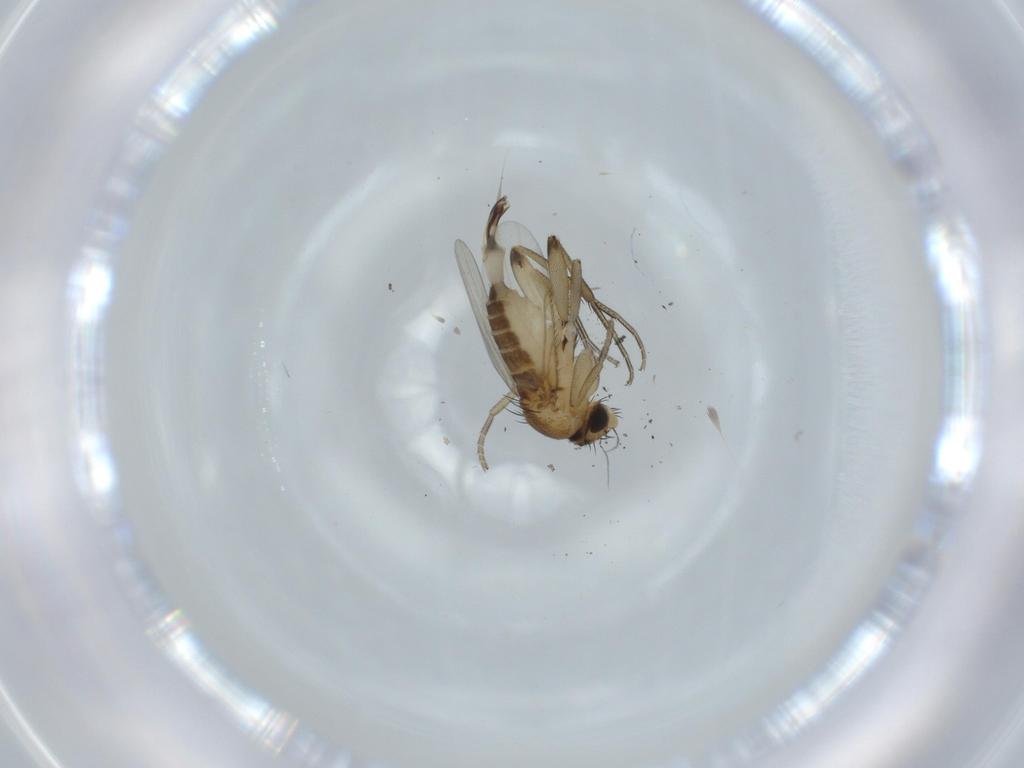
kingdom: Animalia
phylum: Arthropoda
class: Insecta
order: Diptera
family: Phoridae
